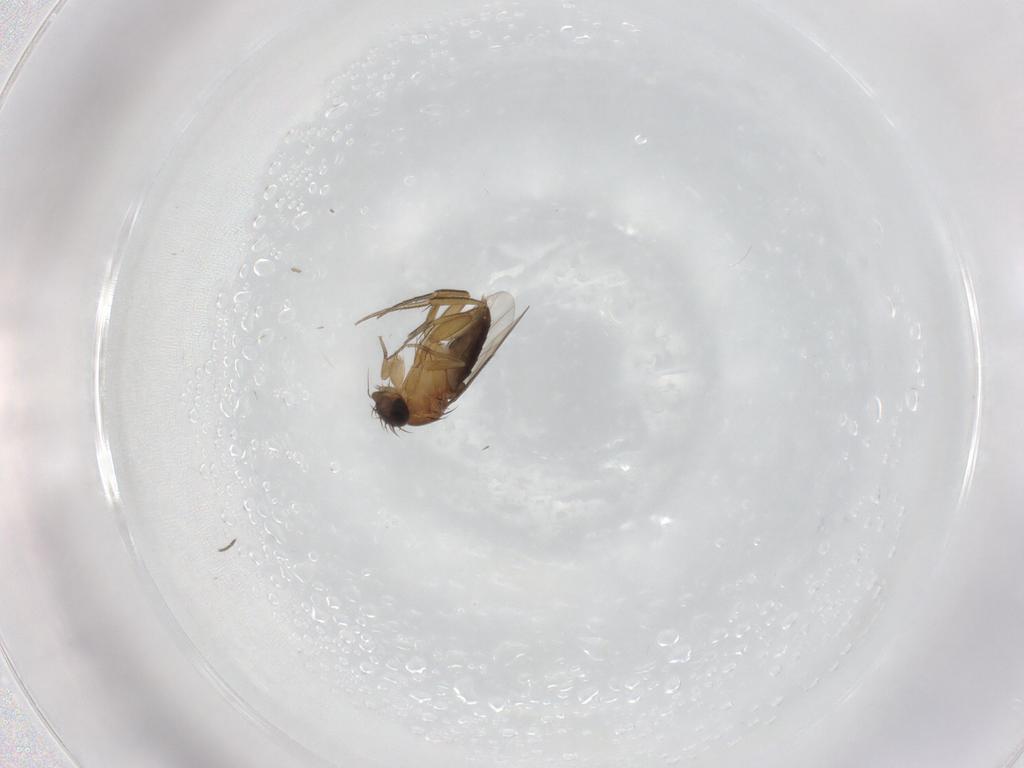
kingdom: Animalia
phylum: Arthropoda
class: Insecta
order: Diptera
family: Phoridae
